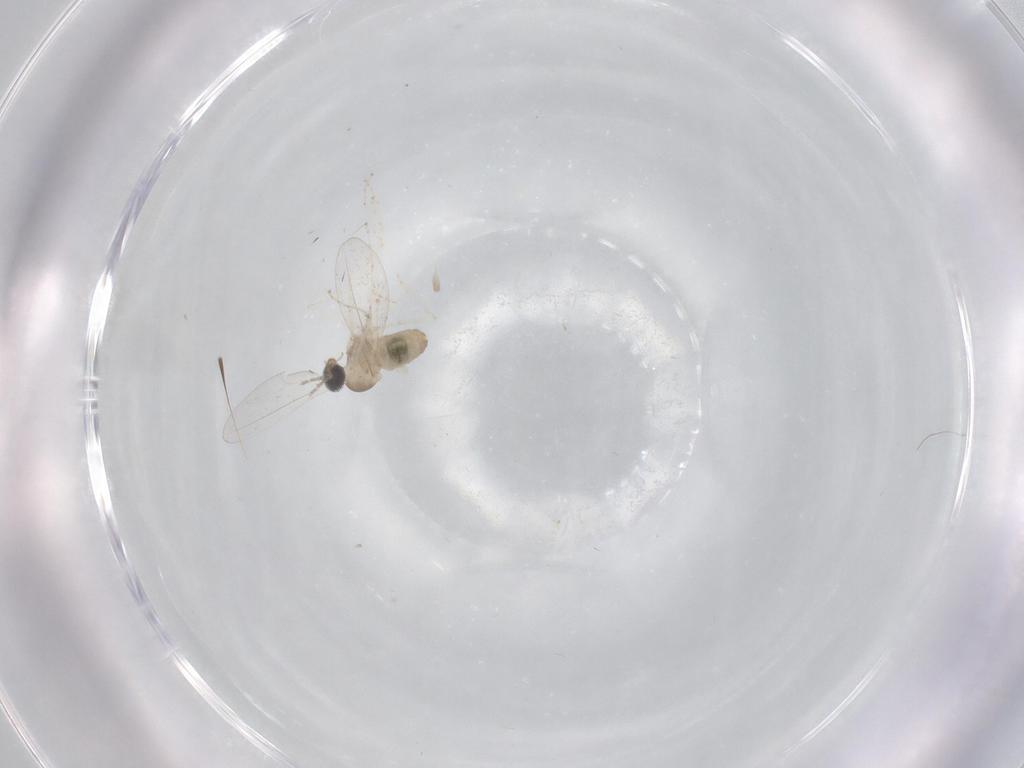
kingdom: Animalia
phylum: Arthropoda
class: Insecta
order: Diptera
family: Cecidomyiidae
